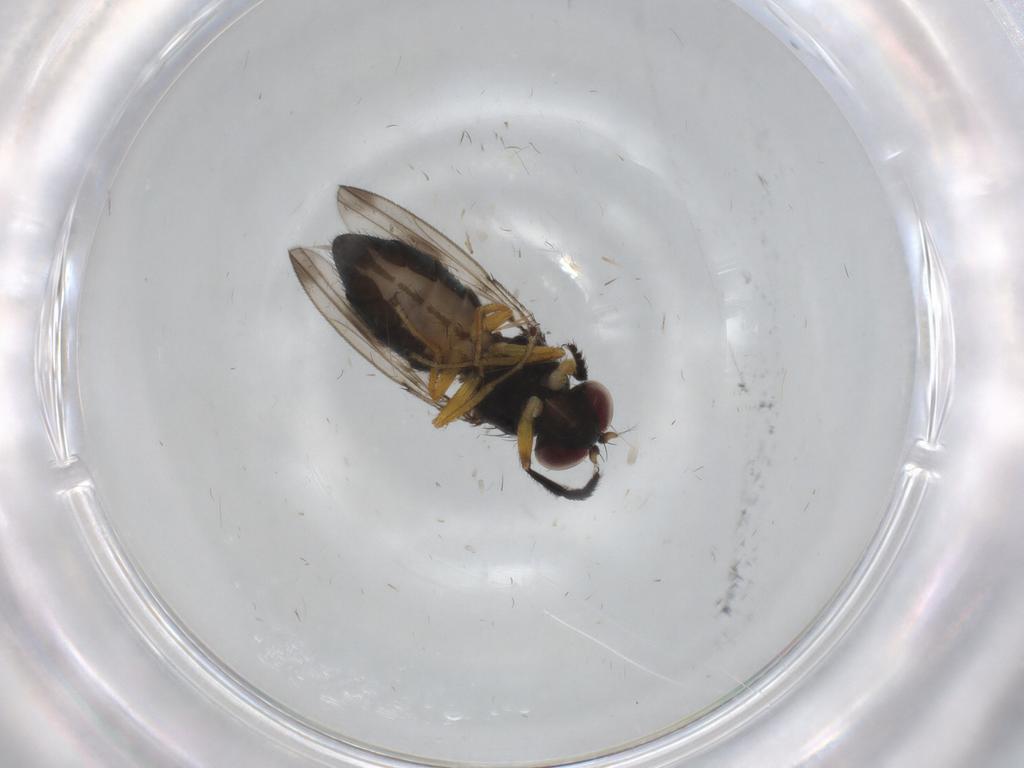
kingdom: Animalia
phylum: Arthropoda
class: Insecta
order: Diptera
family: Ephydridae
